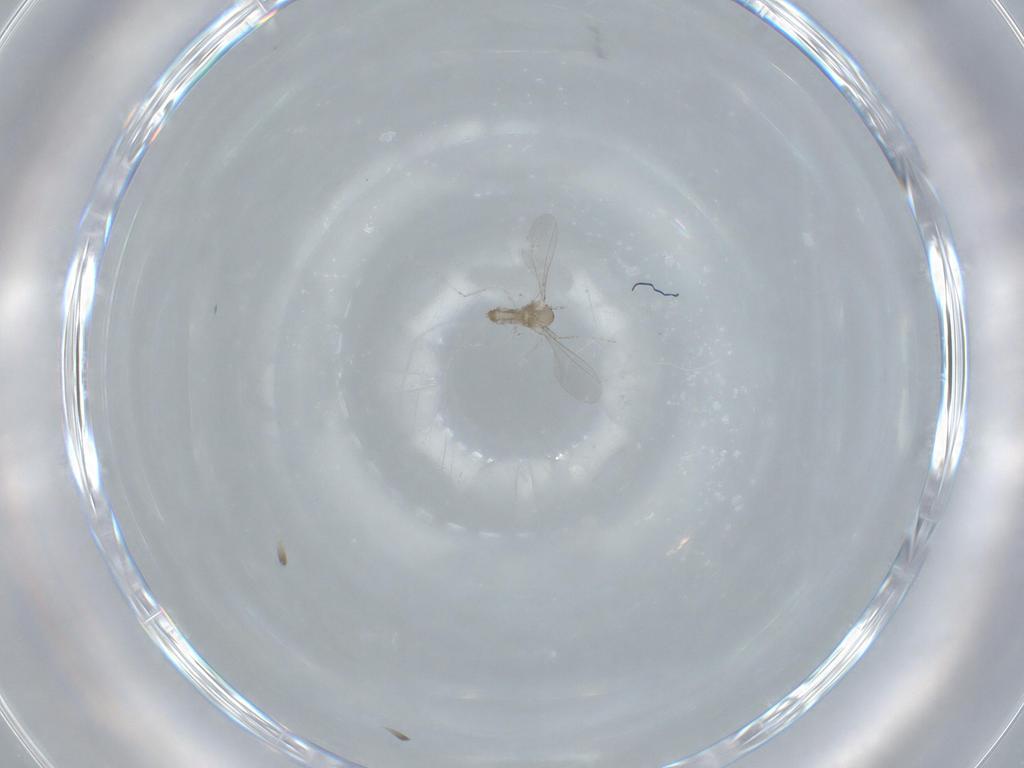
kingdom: Animalia
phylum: Arthropoda
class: Insecta
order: Diptera
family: Cecidomyiidae
